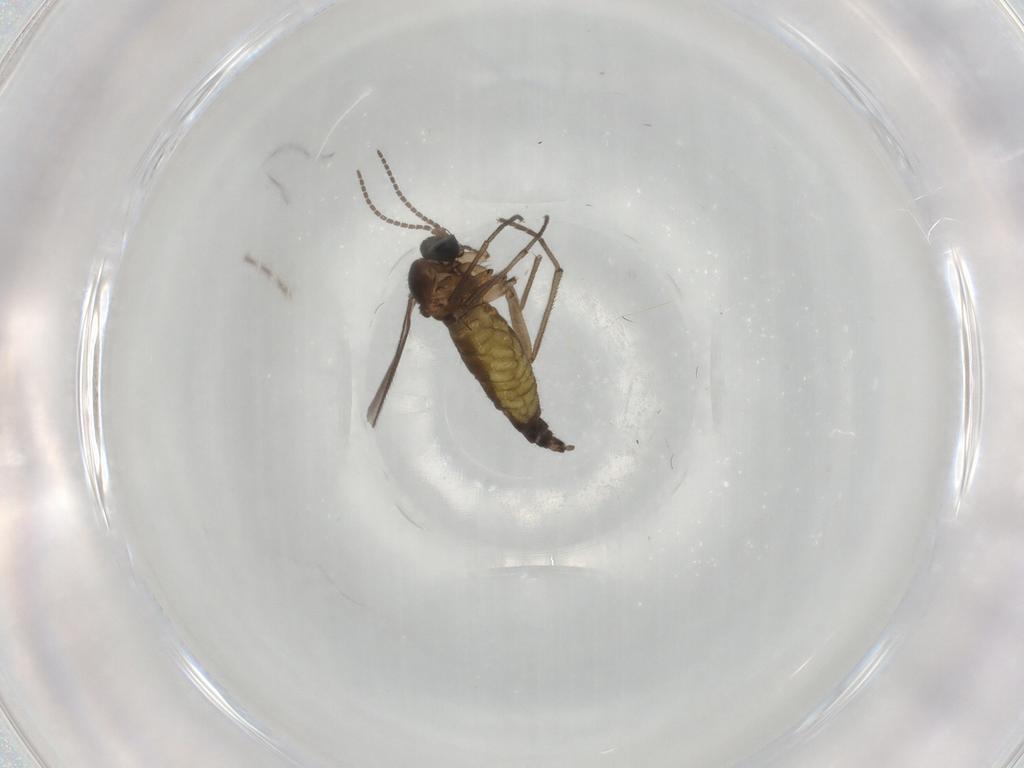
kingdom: Animalia
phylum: Arthropoda
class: Insecta
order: Diptera
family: Sciaridae
